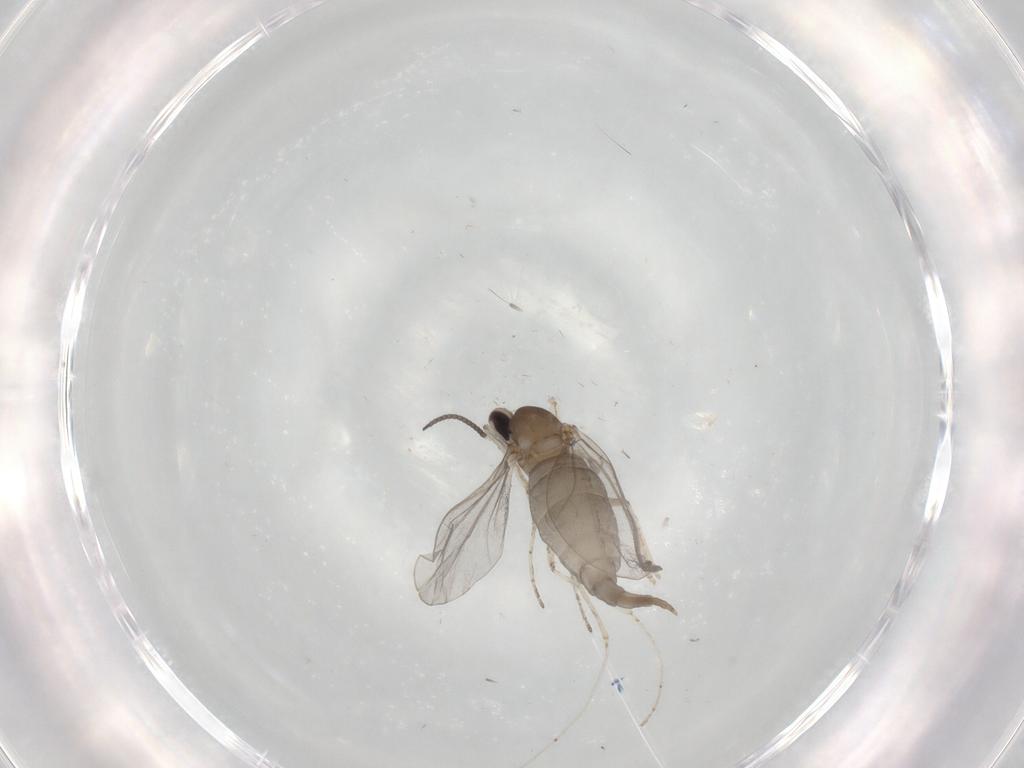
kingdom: Animalia
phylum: Arthropoda
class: Insecta
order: Diptera
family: Cecidomyiidae
